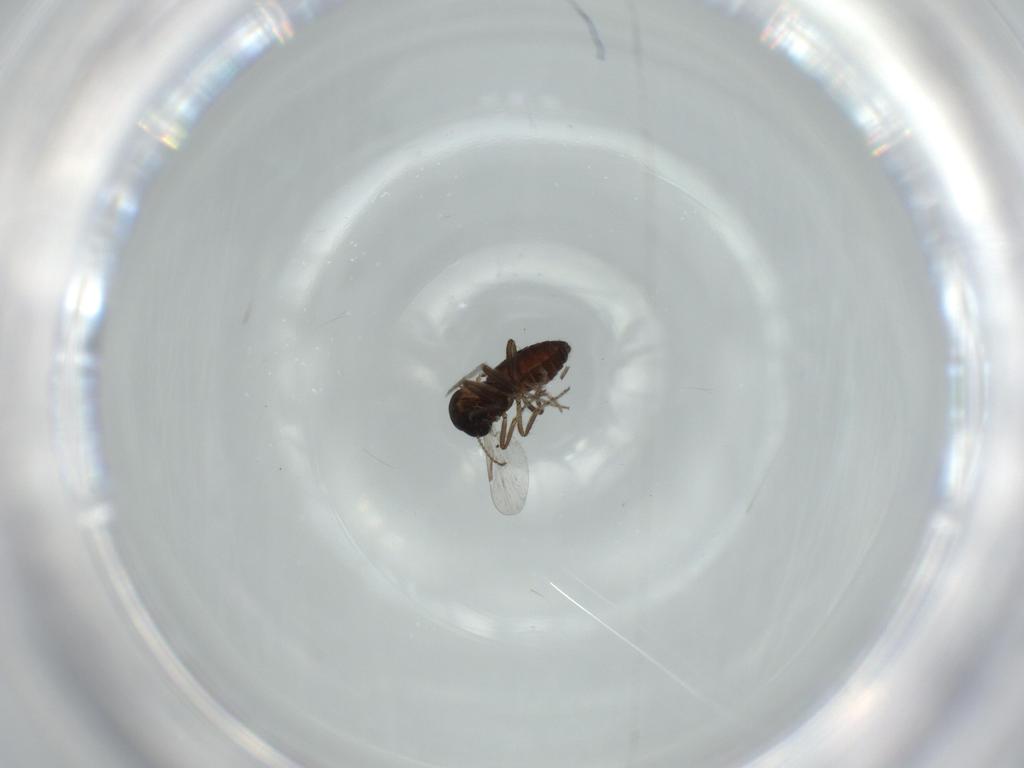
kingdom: Animalia
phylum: Arthropoda
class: Insecta
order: Diptera
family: Ceratopogonidae
